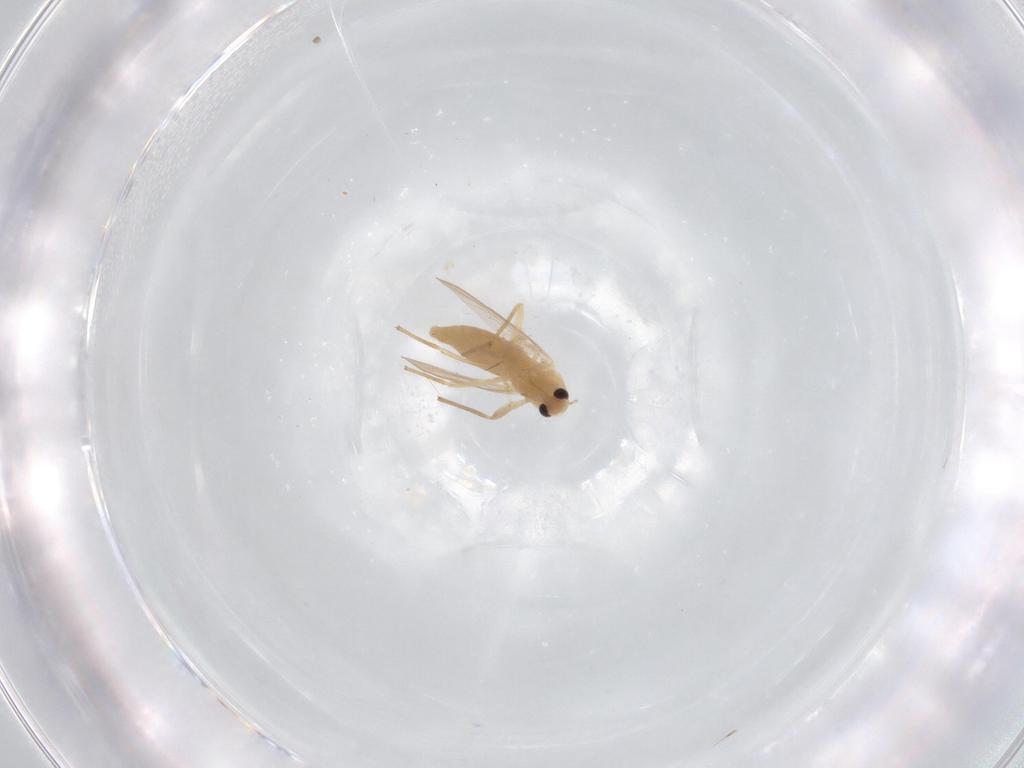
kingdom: Animalia
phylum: Arthropoda
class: Insecta
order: Diptera
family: Chironomidae
